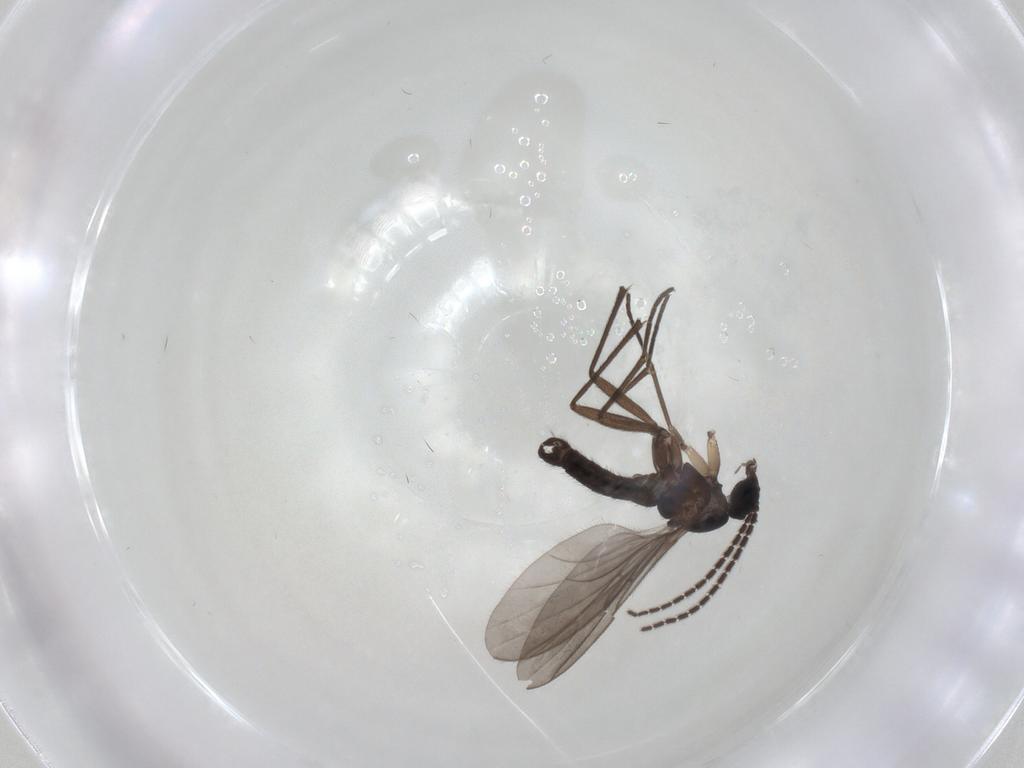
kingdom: Animalia
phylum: Arthropoda
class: Insecta
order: Diptera
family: Sciaridae
